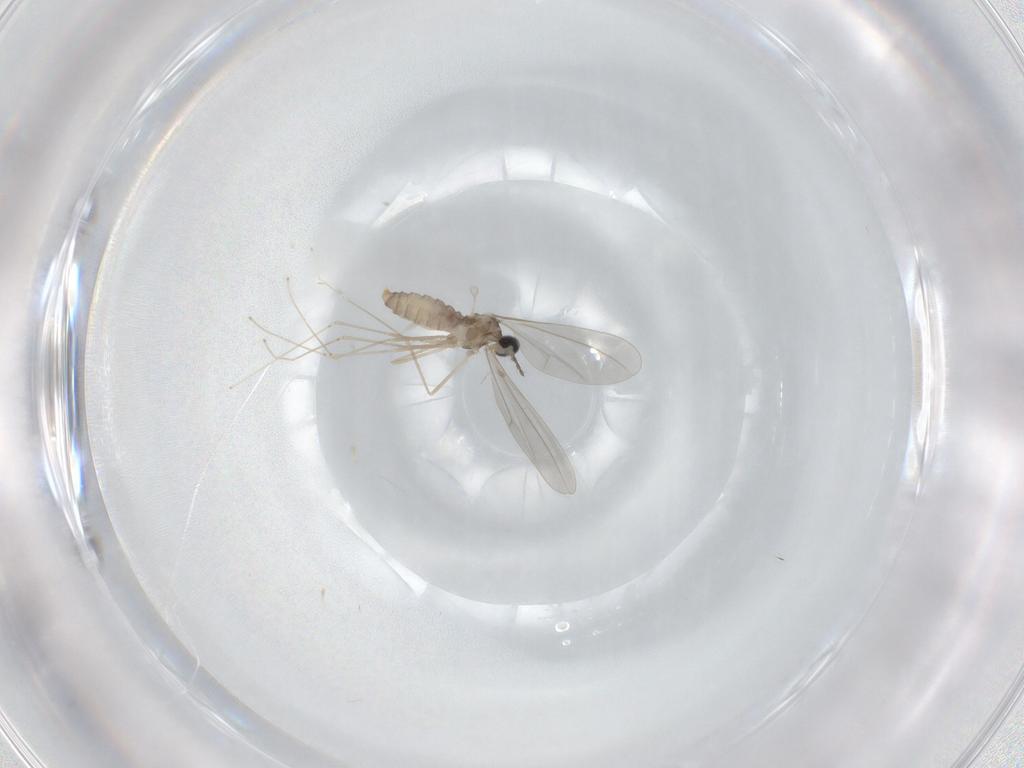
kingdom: Animalia
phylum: Arthropoda
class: Insecta
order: Diptera
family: Cecidomyiidae
